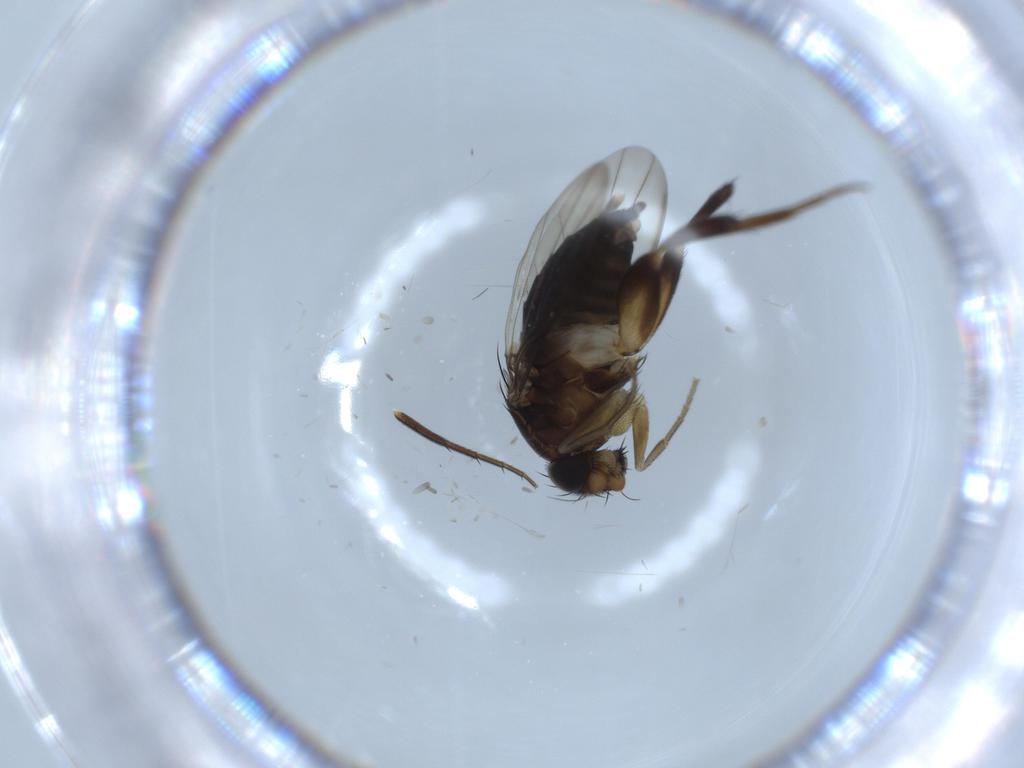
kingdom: Animalia
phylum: Arthropoda
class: Insecta
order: Diptera
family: Phoridae
